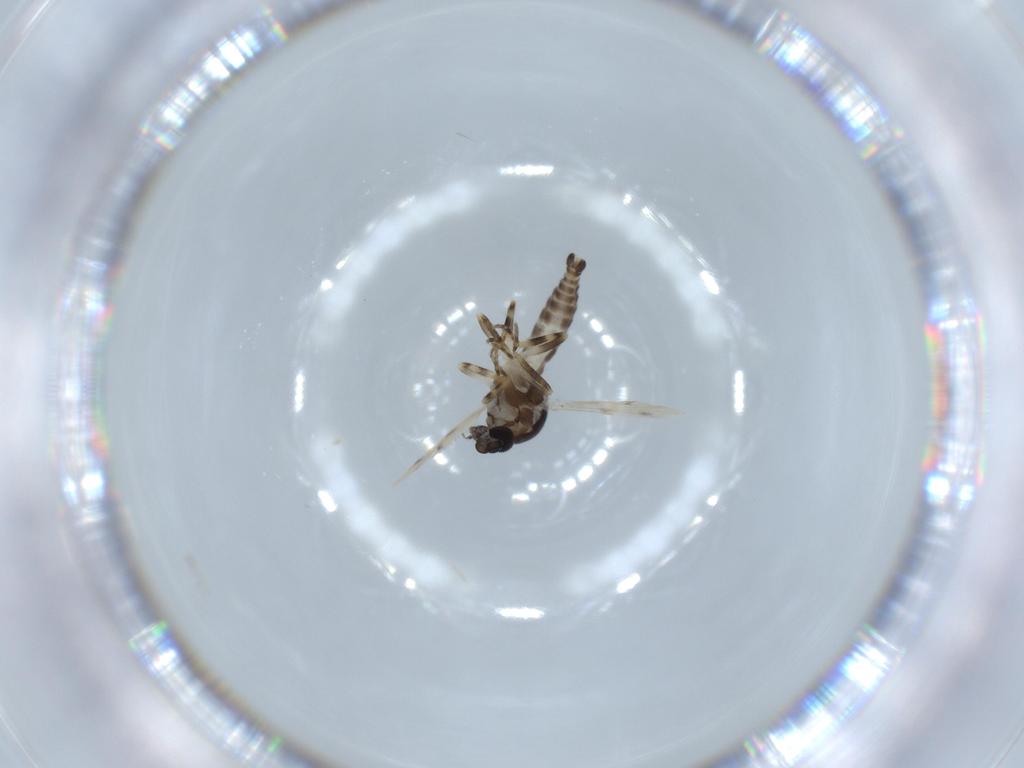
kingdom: Animalia
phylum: Arthropoda
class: Insecta
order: Diptera
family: Ceratopogonidae
